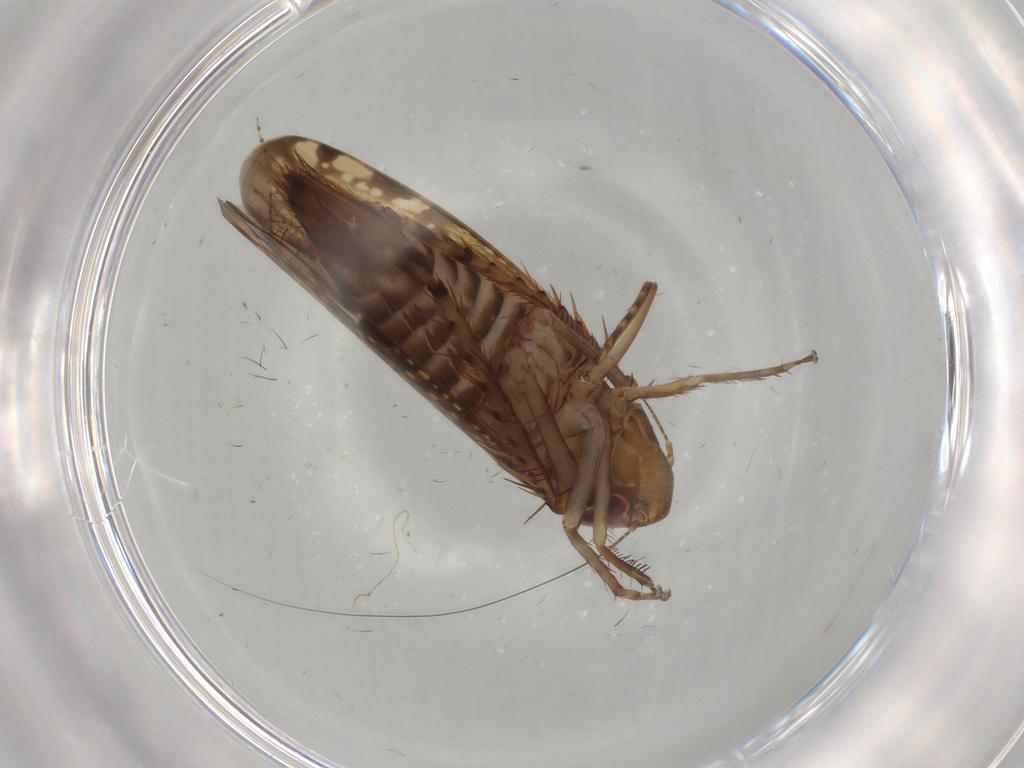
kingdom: Animalia
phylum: Arthropoda
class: Insecta
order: Hemiptera
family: Cicadellidae
